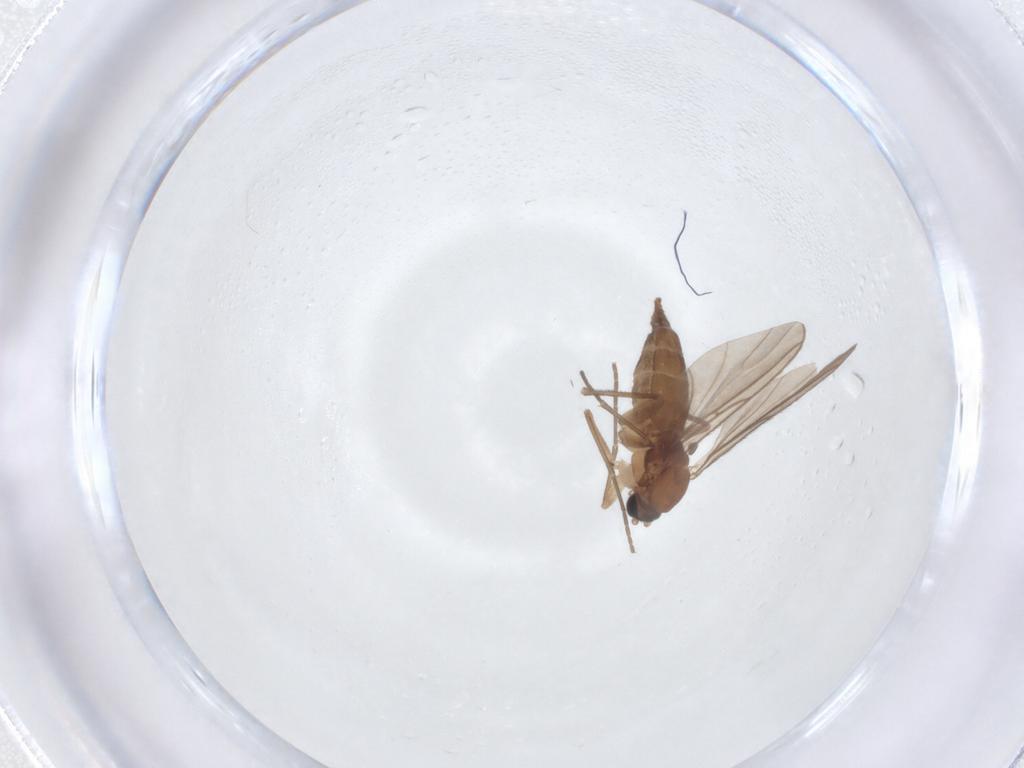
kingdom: Animalia
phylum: Arthropoda
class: Insecta
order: Diptera
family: Sciaridae
